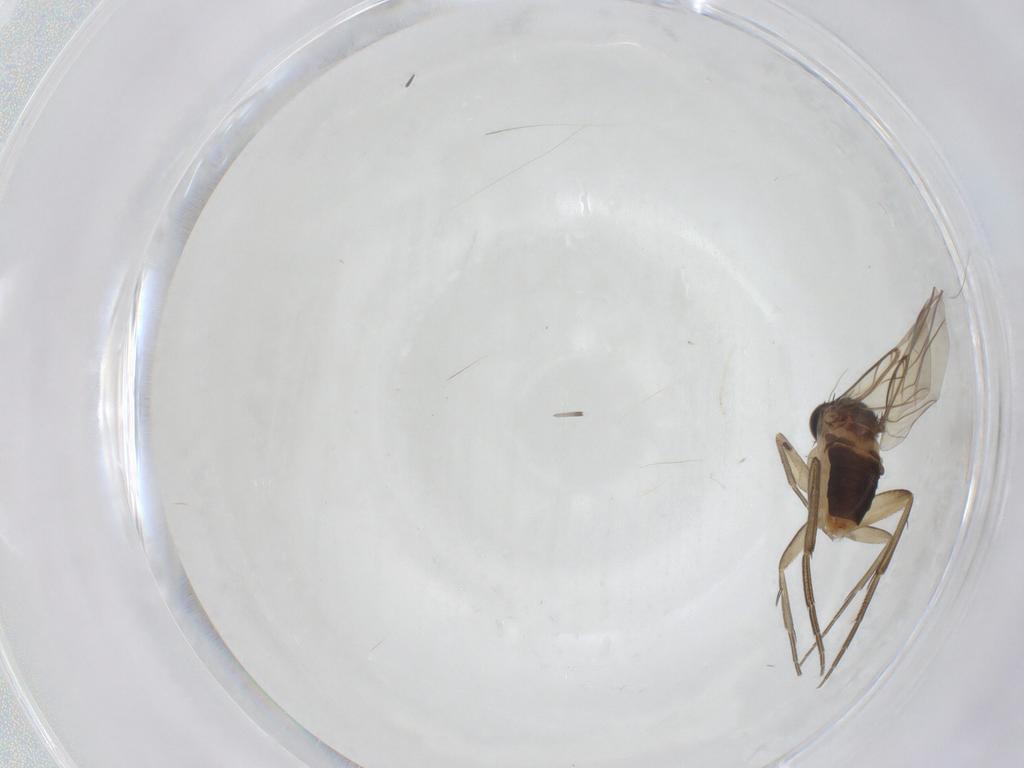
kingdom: Animalia
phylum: Arthropoda
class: Insecta
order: Diptera
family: Phoridae
